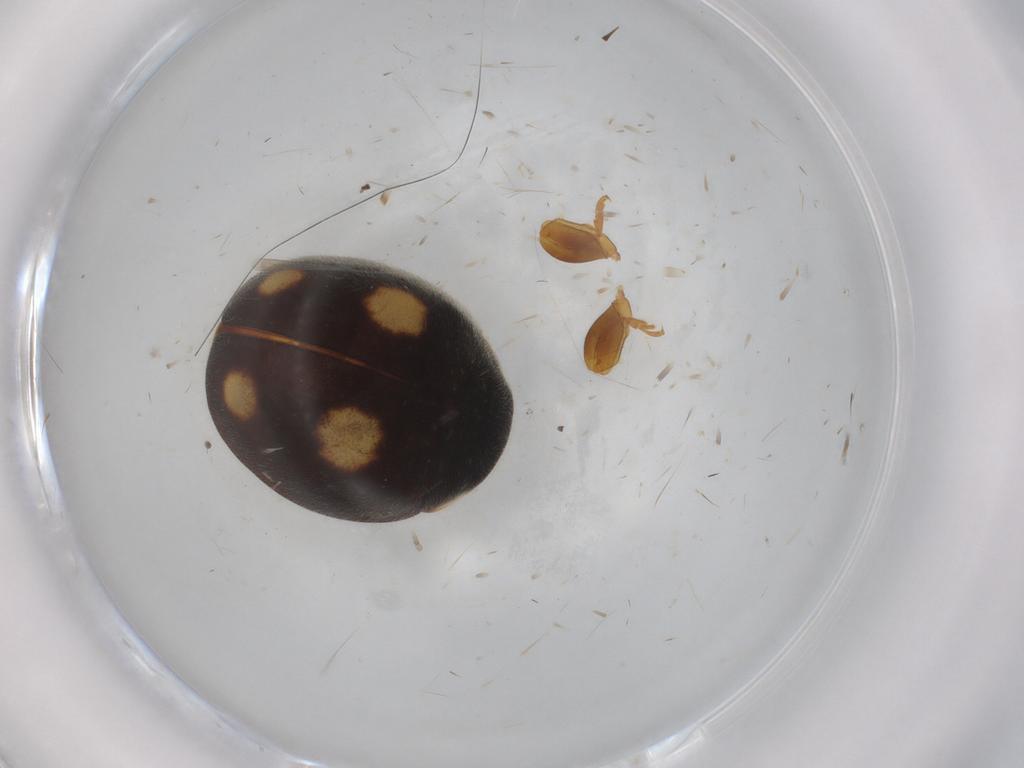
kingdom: Animalia
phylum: Arthropoda
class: Insecta
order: Coleoptera
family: Coccinellidae
